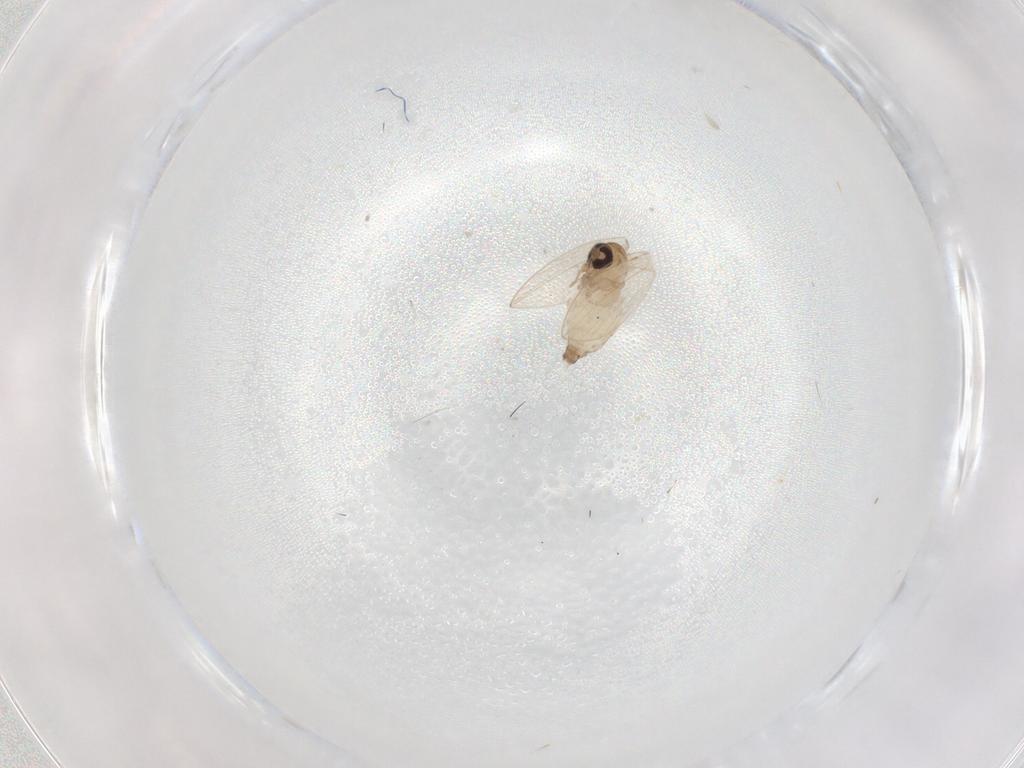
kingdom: Animalia
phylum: Arthropoda
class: Insecta
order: Diptera
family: Psychodidae
